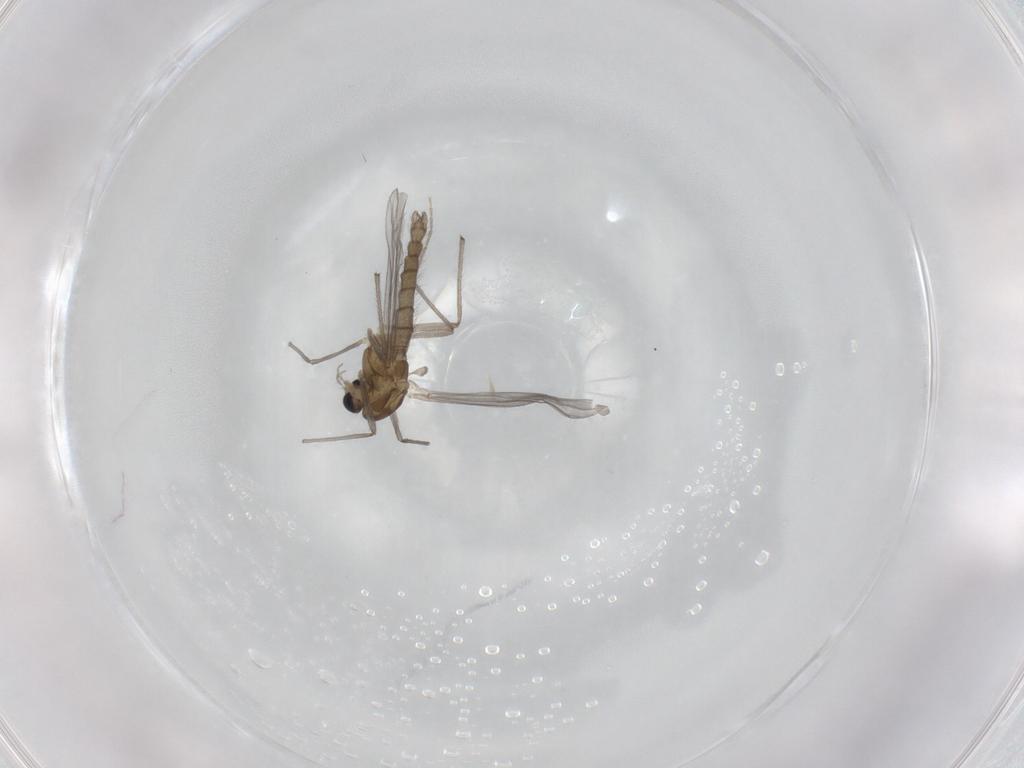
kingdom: Animalia
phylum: Arthropoda
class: Insecta
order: Diptera
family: Chironomidae
